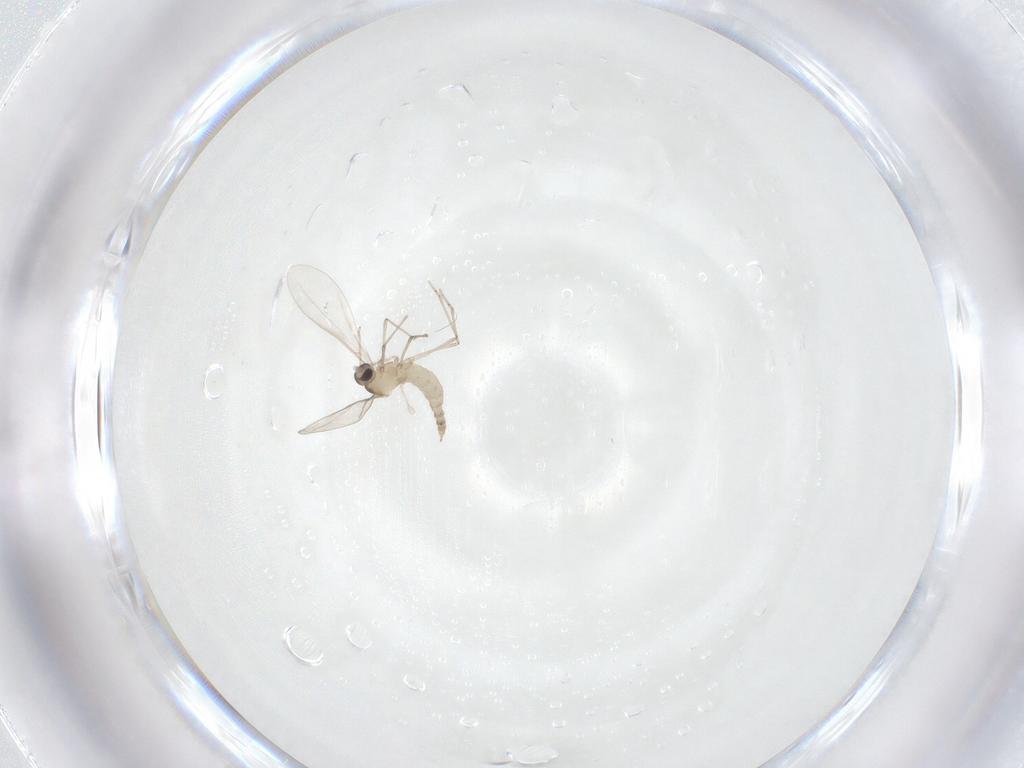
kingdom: Animalia
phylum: Arthropoda
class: Insecta
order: Diptera
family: Cecidomyiidae
